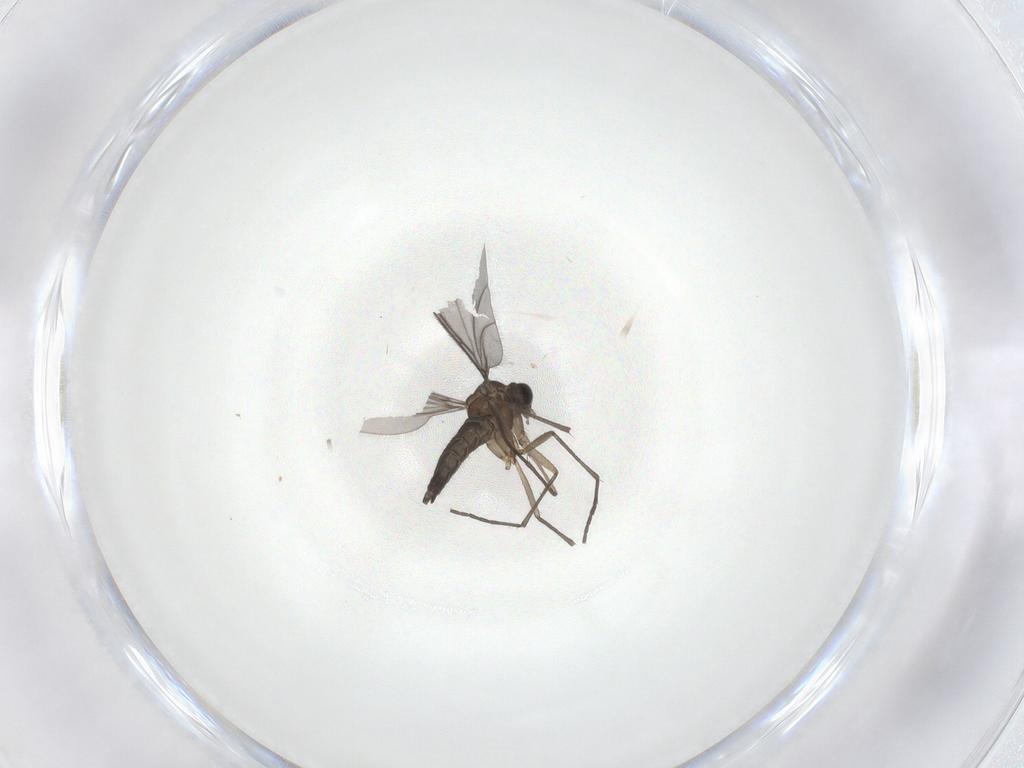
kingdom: Animalia
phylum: Arthropoda
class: Insecta
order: Diptera
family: Sciaridae
